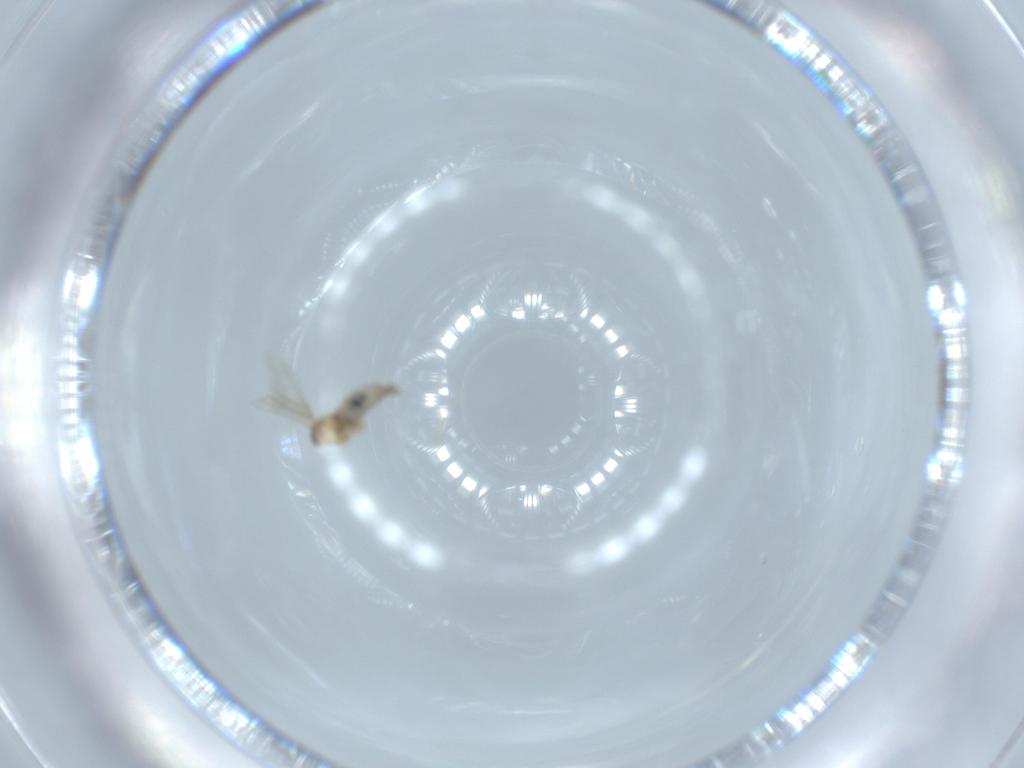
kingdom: Animalia
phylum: Arthropoda
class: Insecta
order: Diptera
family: Cecidomyiidae
